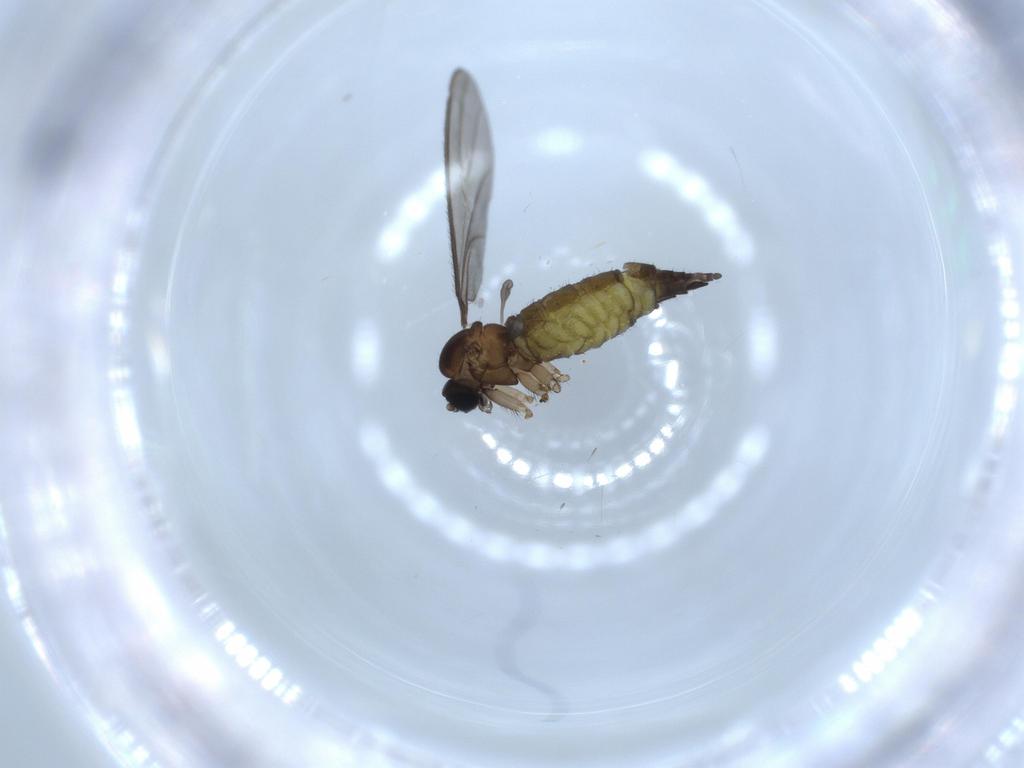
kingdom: Animalia
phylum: Arthropoda
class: Insecta
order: Diptera
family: Sciaridae
